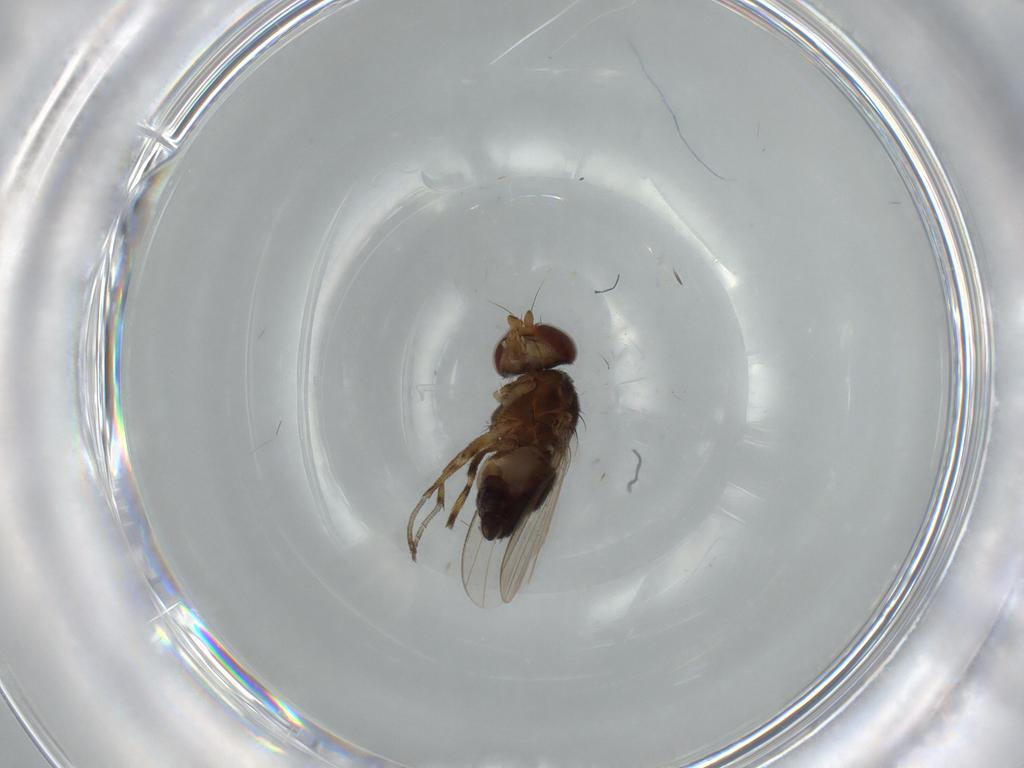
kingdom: Animalia
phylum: Arthropoda
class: Insecta
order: Diptera
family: Heleomyzidae
